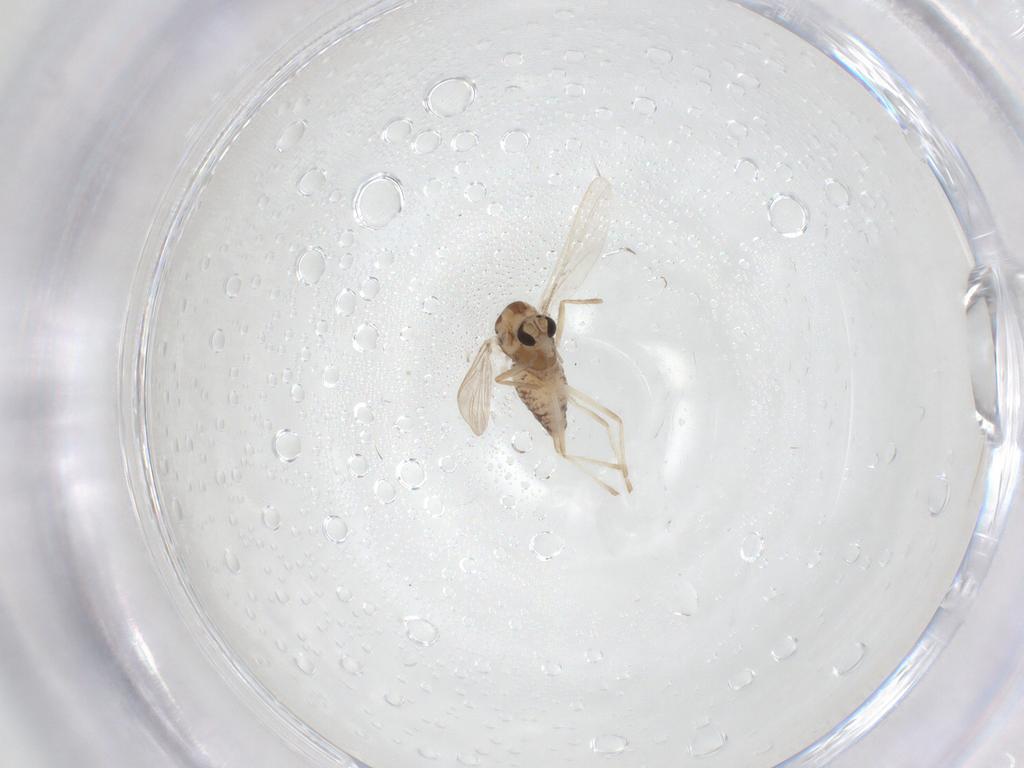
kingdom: Animalia
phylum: Arthropoda
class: Insecta
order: Diptera
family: Chironomidae
